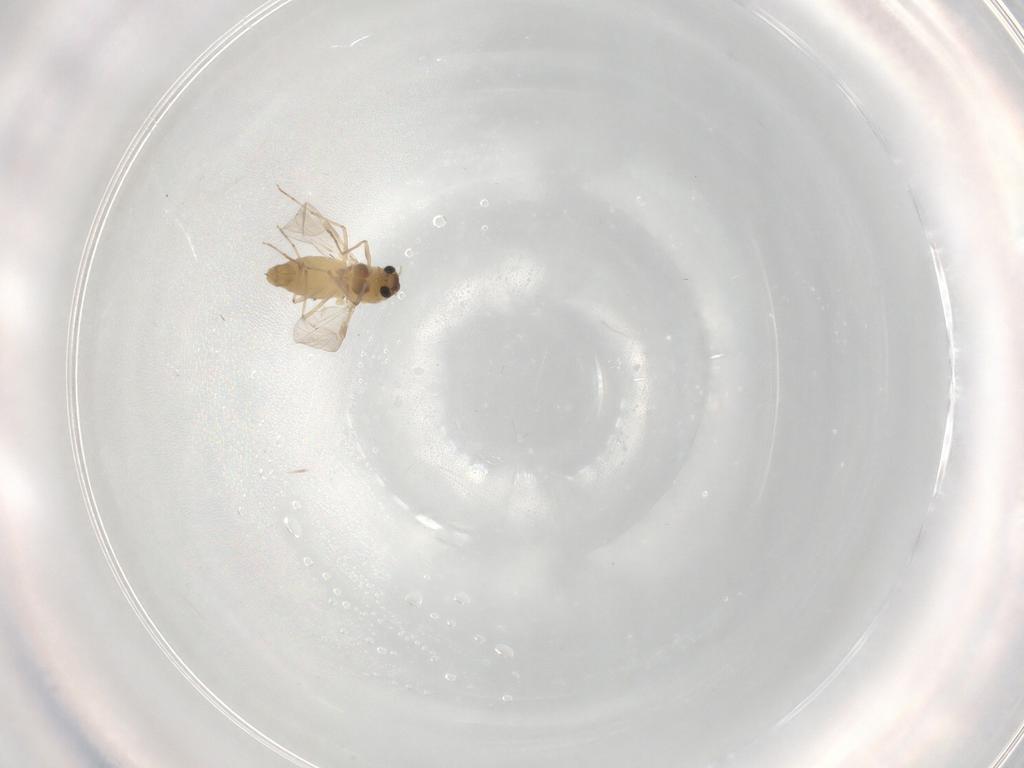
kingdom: Animalia
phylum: Arthropoda
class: Insecta
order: Diptera
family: Chironomidae
